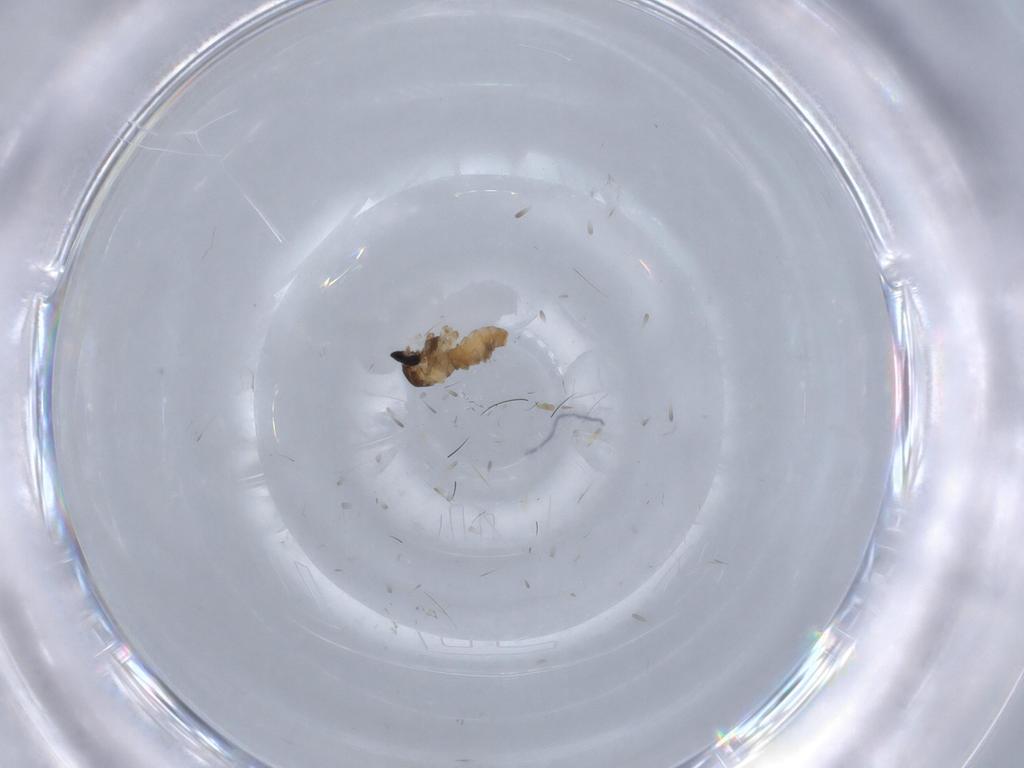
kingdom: Animalia
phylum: Arthropoda
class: Insecta
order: Diptera
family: Cecidomyiidae
